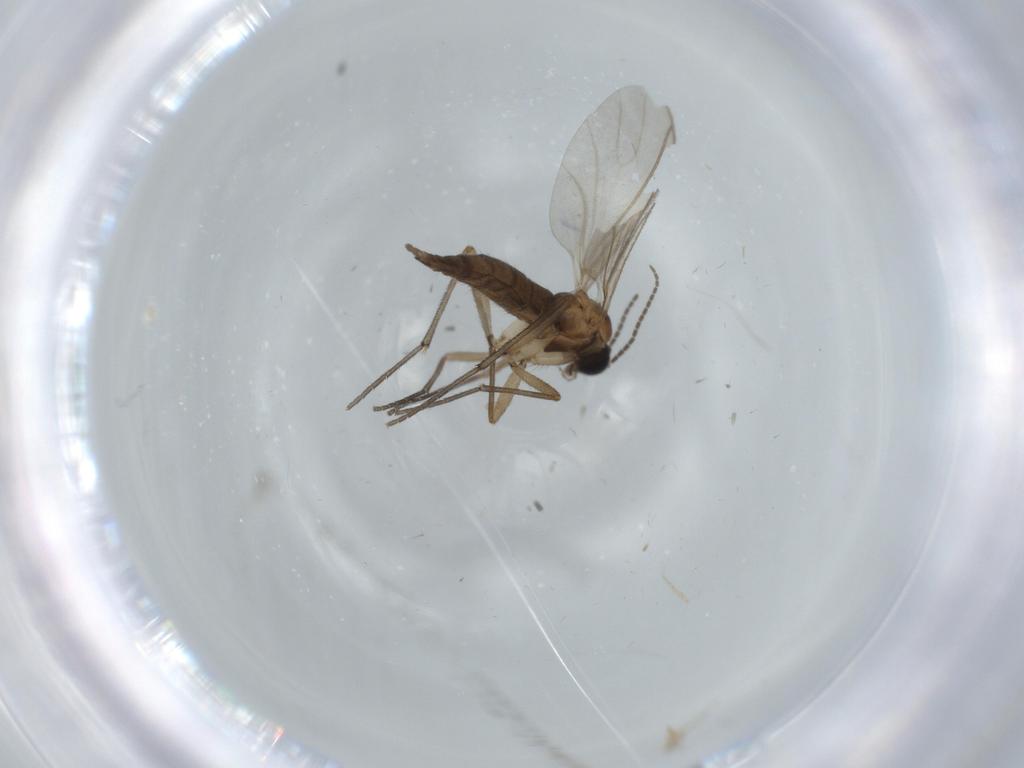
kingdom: Animalia
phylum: Arthropoda
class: Insecta
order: Diptera
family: Sciaridae
